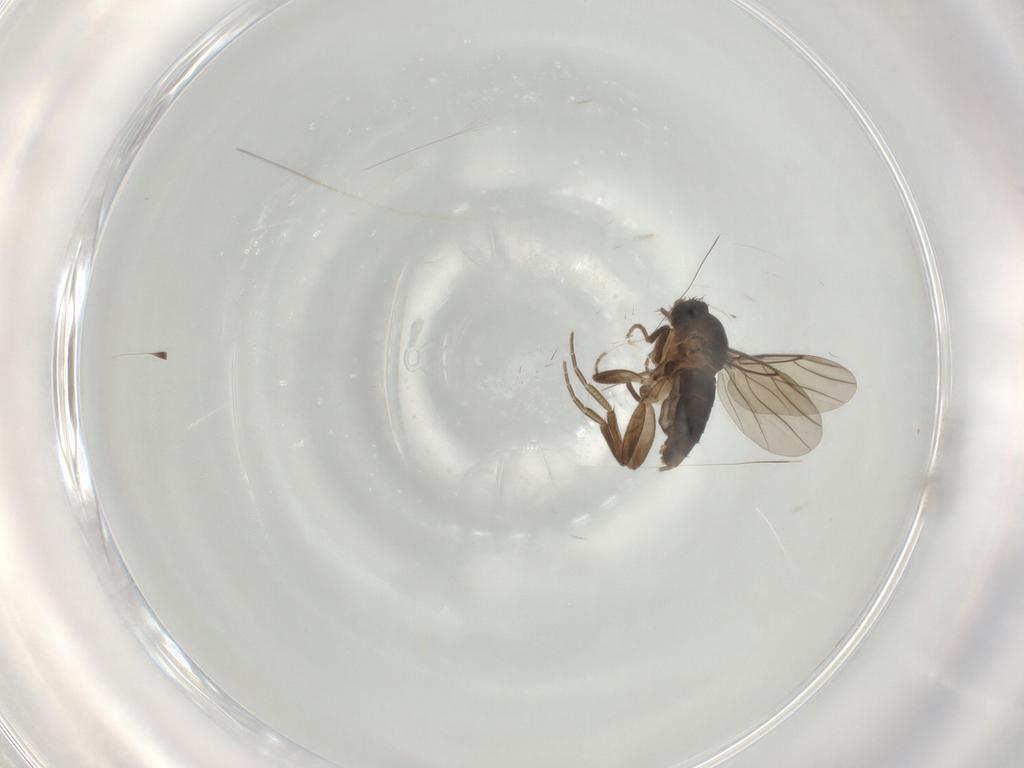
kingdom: Animalia
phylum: Arthropoda
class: Insecta
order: Diptera
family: Phoridae
